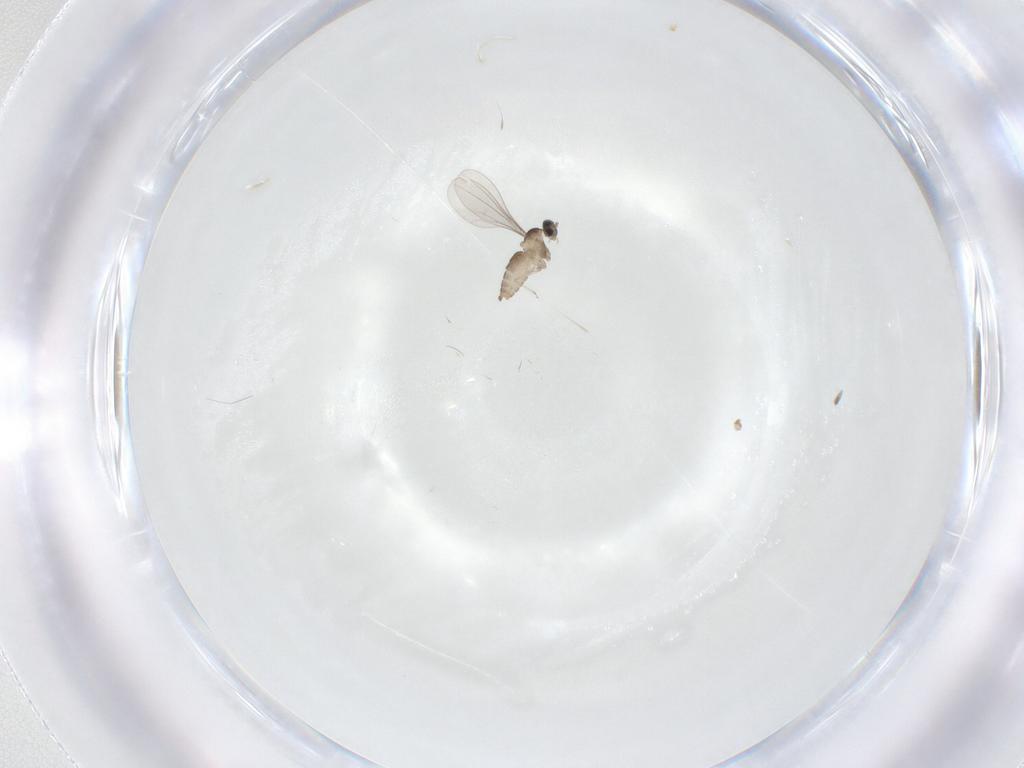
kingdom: Animalia
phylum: Arthropoda
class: Insecta
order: Diptera
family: Cecidomyiidae
